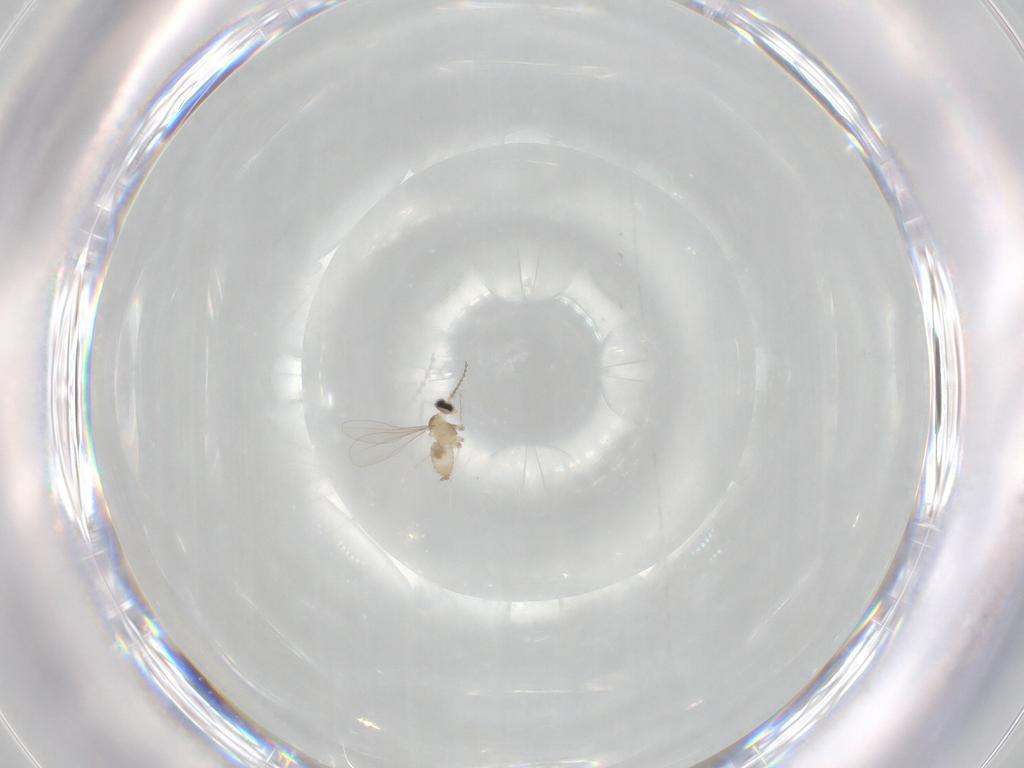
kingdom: Animalia
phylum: Arthropoda
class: Insecta
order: Diptera
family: Cecidomyiidae
